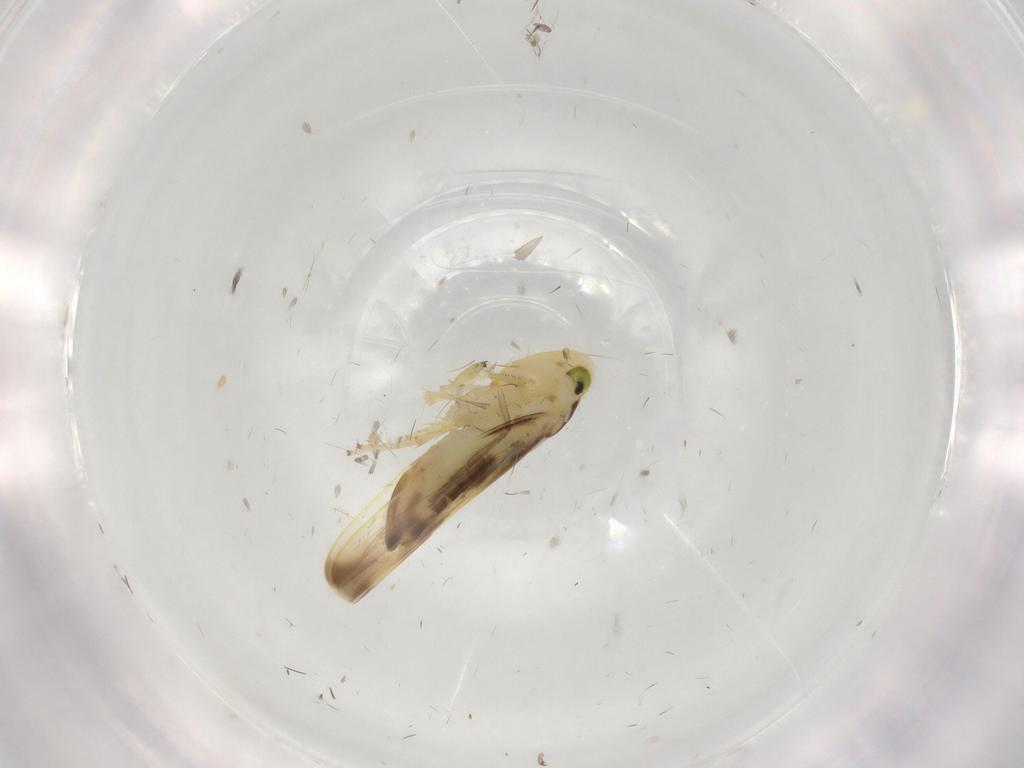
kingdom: Animalia
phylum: Arthropoda
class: Insecta
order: Hemiptera
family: Cicadellidae
